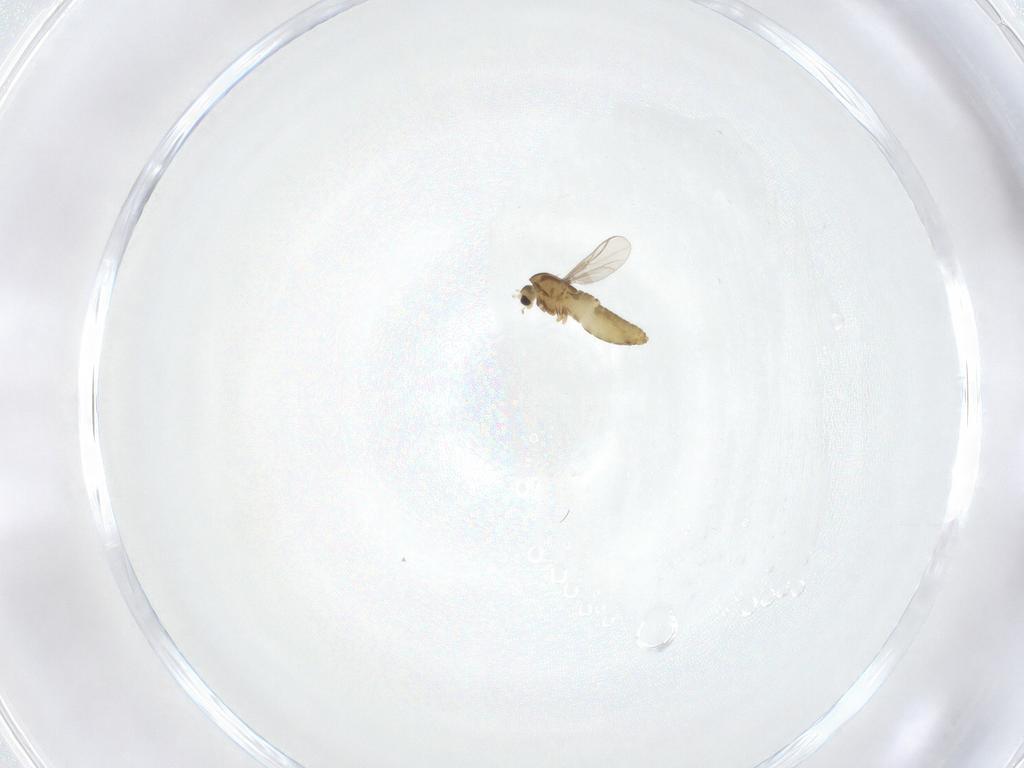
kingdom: Animalia
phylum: Arthropoda
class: Insecta
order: Diptera
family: Chironomidae
